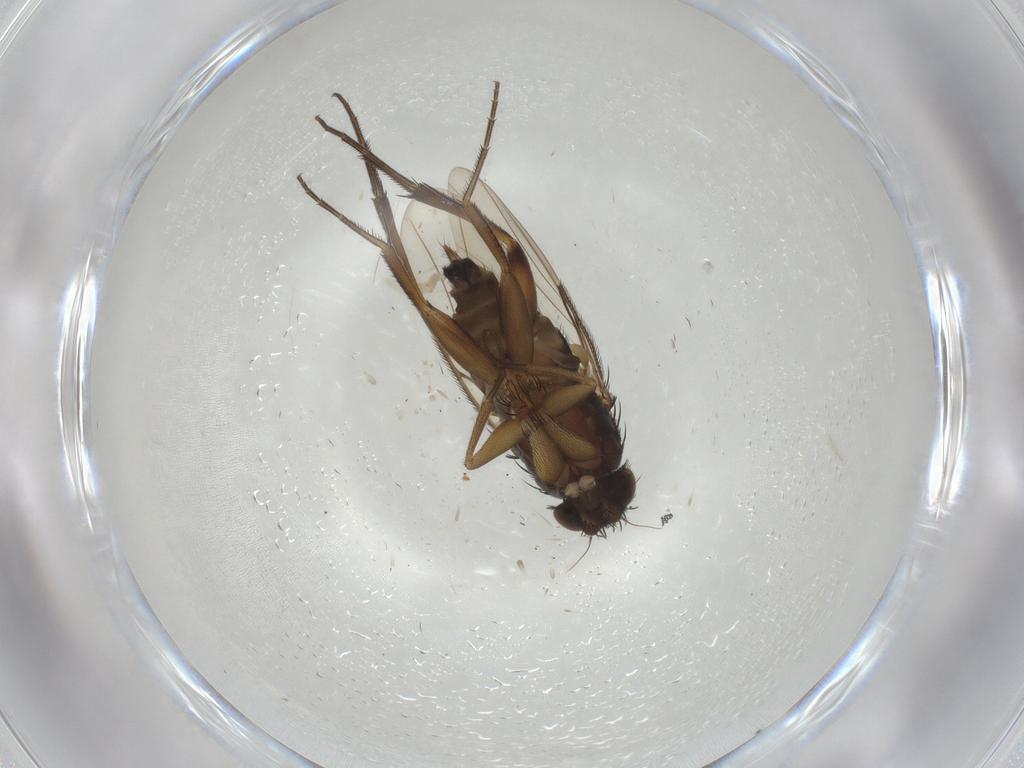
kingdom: Animalia
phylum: Arthropoda
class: Insecta
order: Diptera
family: Phoridae
